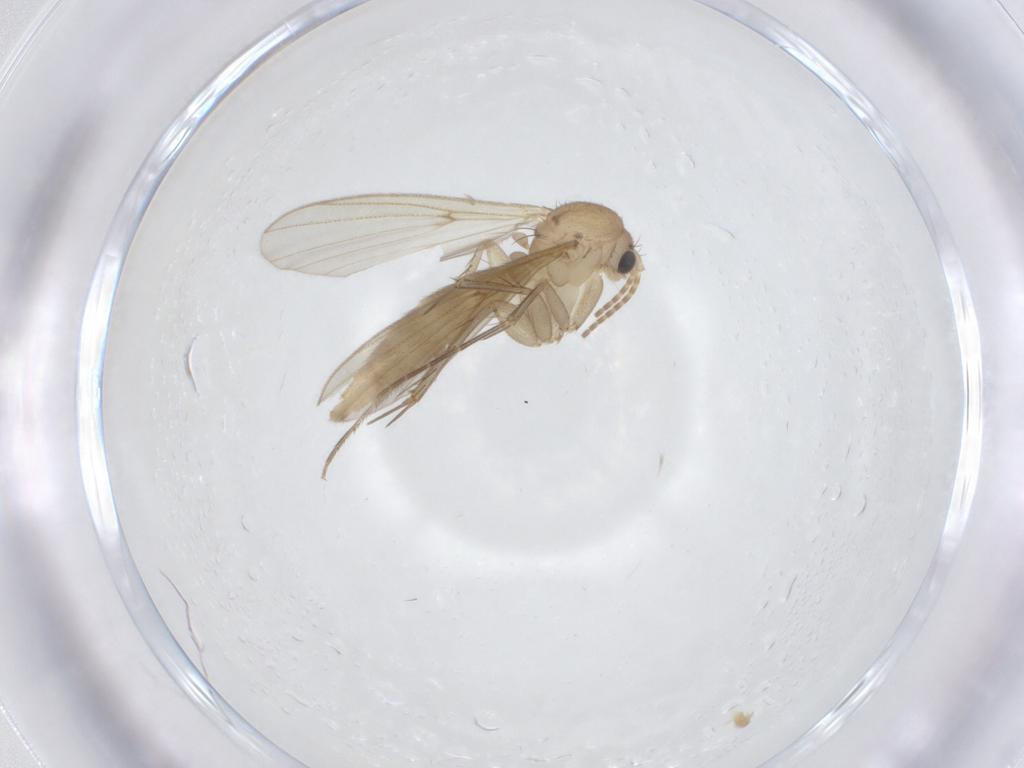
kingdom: Animalia
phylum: Arthropoda
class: Insecta
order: Diptera
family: Mycetophilidae
